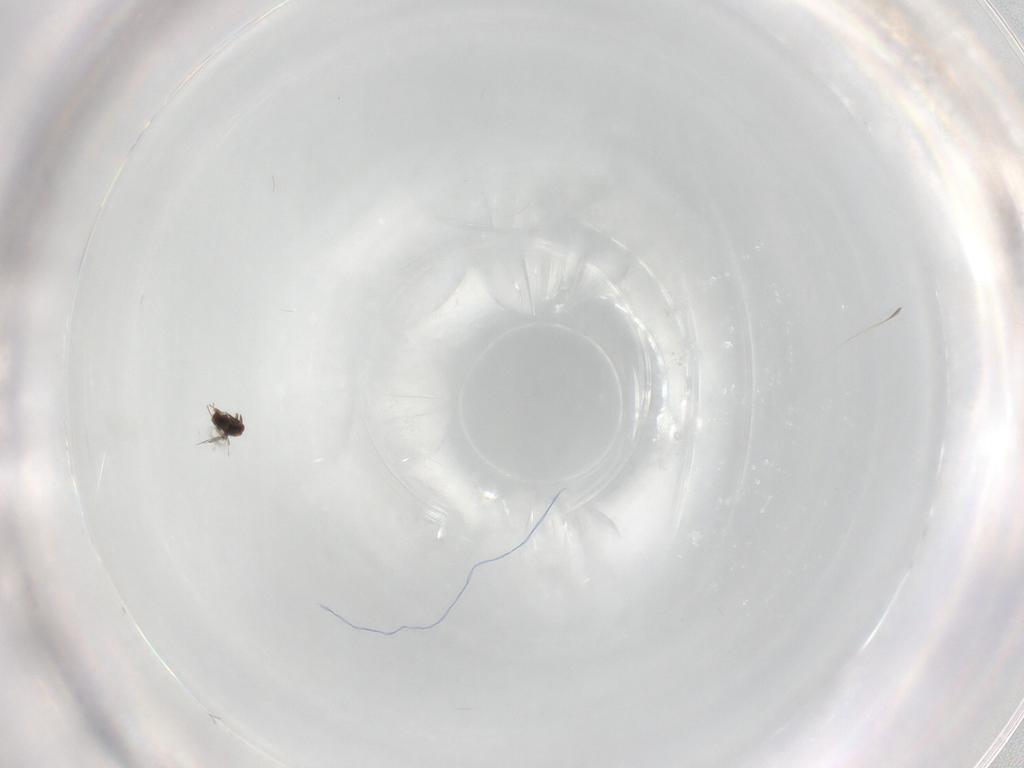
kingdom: Animalia
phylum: Arthropoda
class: Insecta
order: Hymenoptera
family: Trichogrammatidae
